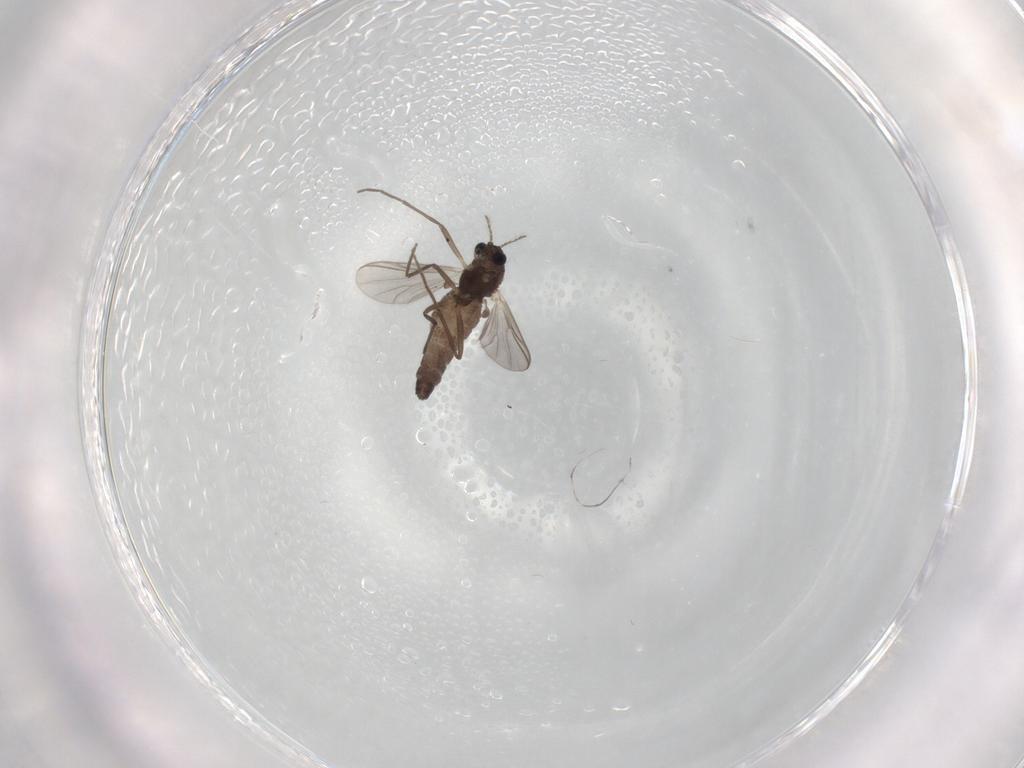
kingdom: Animalia
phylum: Arthropoda
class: Insecta
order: Diptera
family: Chironomidae
